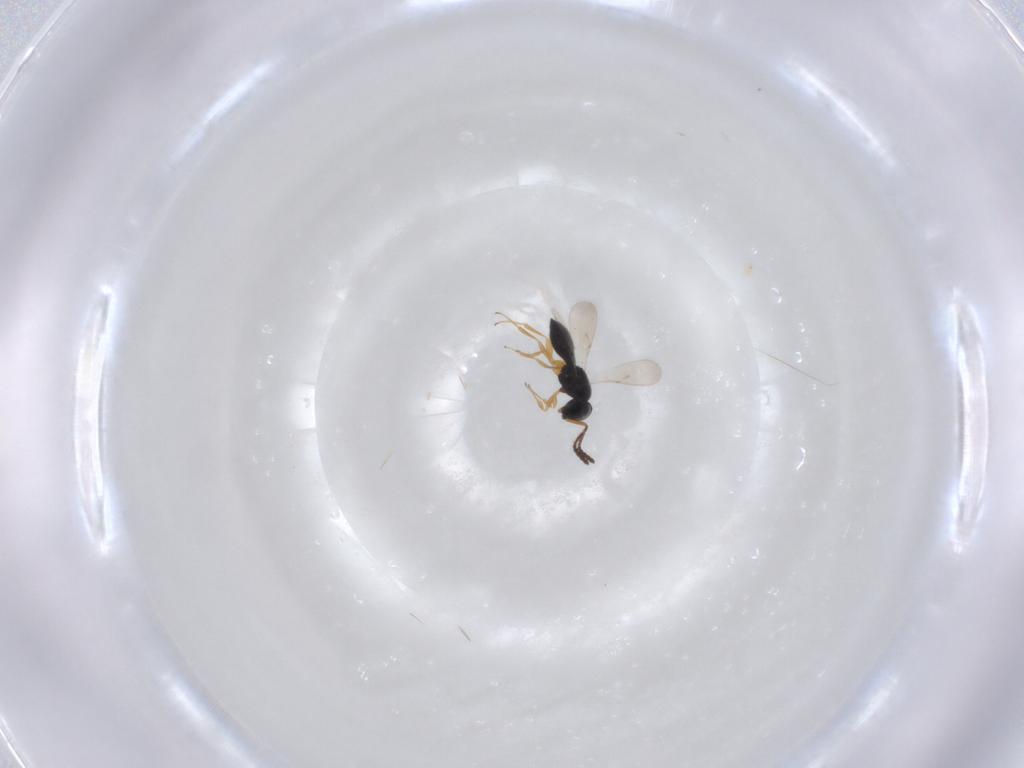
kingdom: Animalia
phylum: Arthropoda
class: Insecta
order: Hymenoptera
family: Scelionidae
